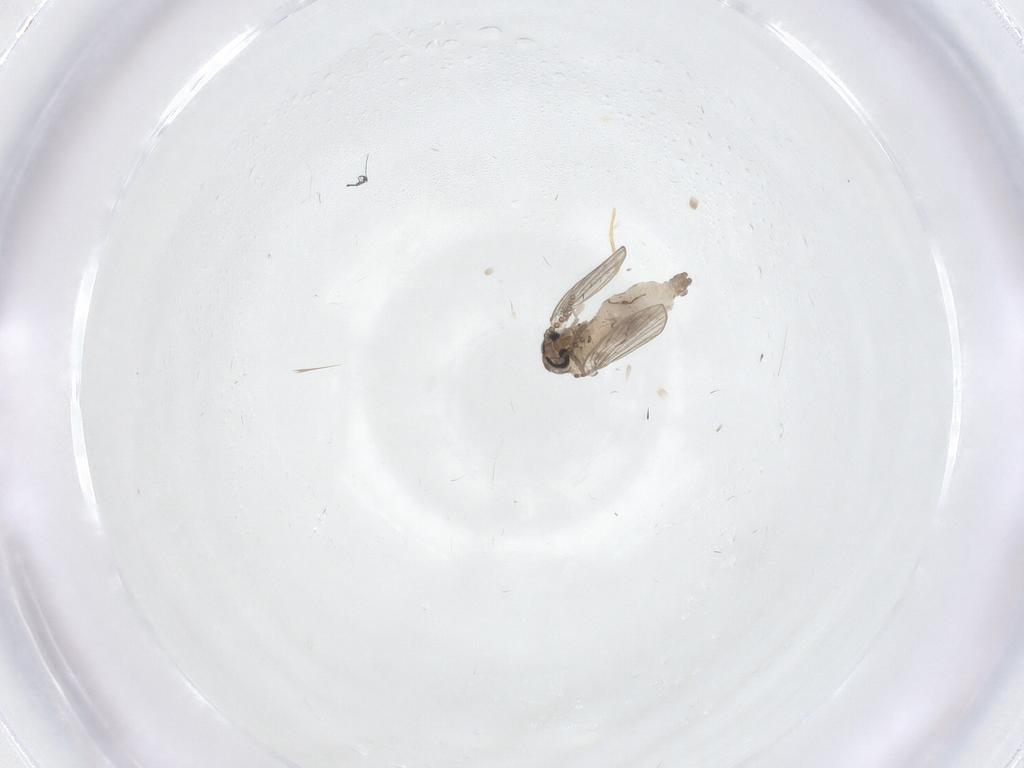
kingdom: Animalia
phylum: Arthropoda
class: Insecta
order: Diptera
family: Psychodidae
